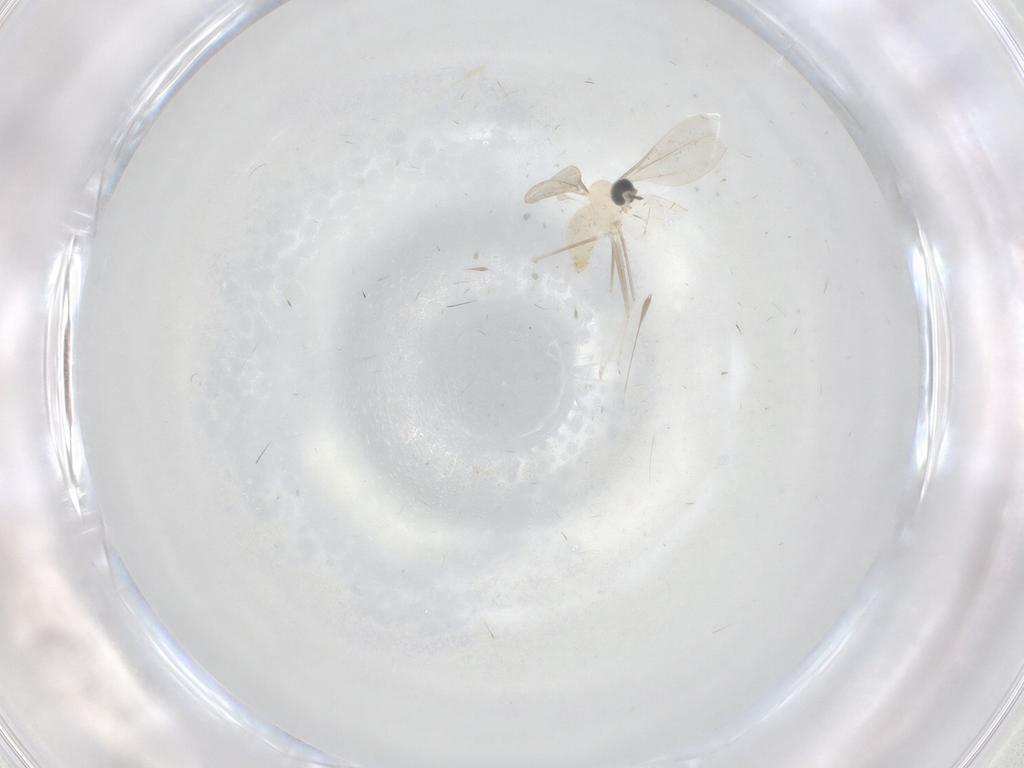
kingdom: Animalia
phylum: Arthropoda
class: Insecta
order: Diptera
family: Cecidomyiidae
